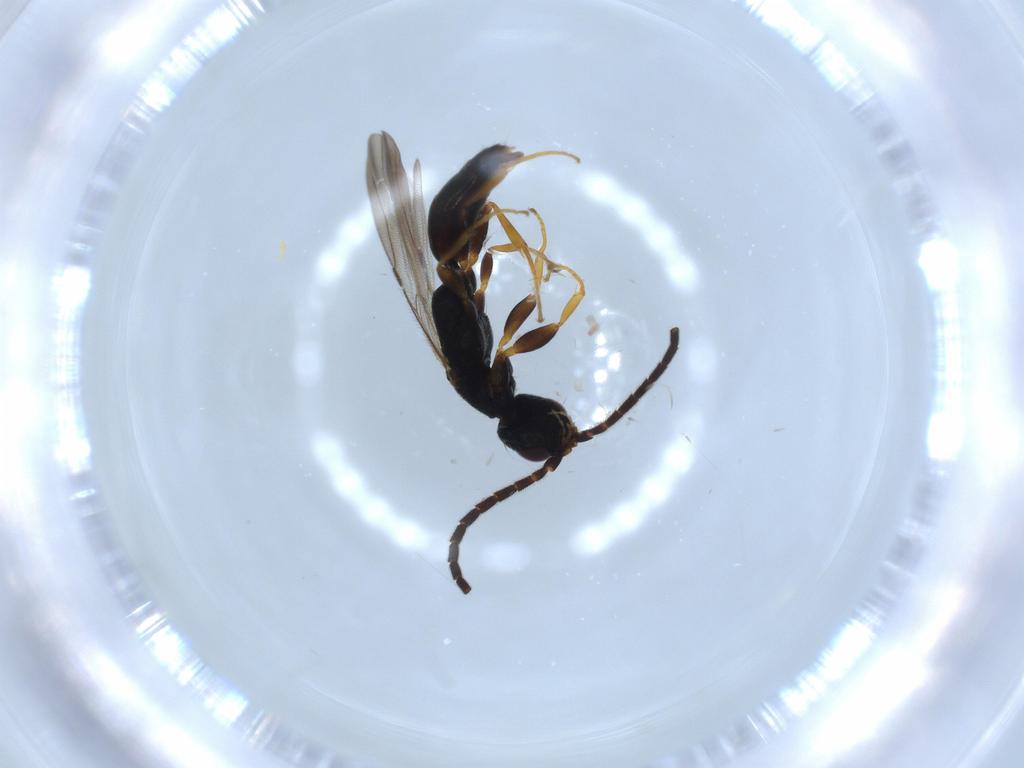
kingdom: Animalia
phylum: Arthropoda
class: Insecta
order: Hymenoptera
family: Bethylidae
